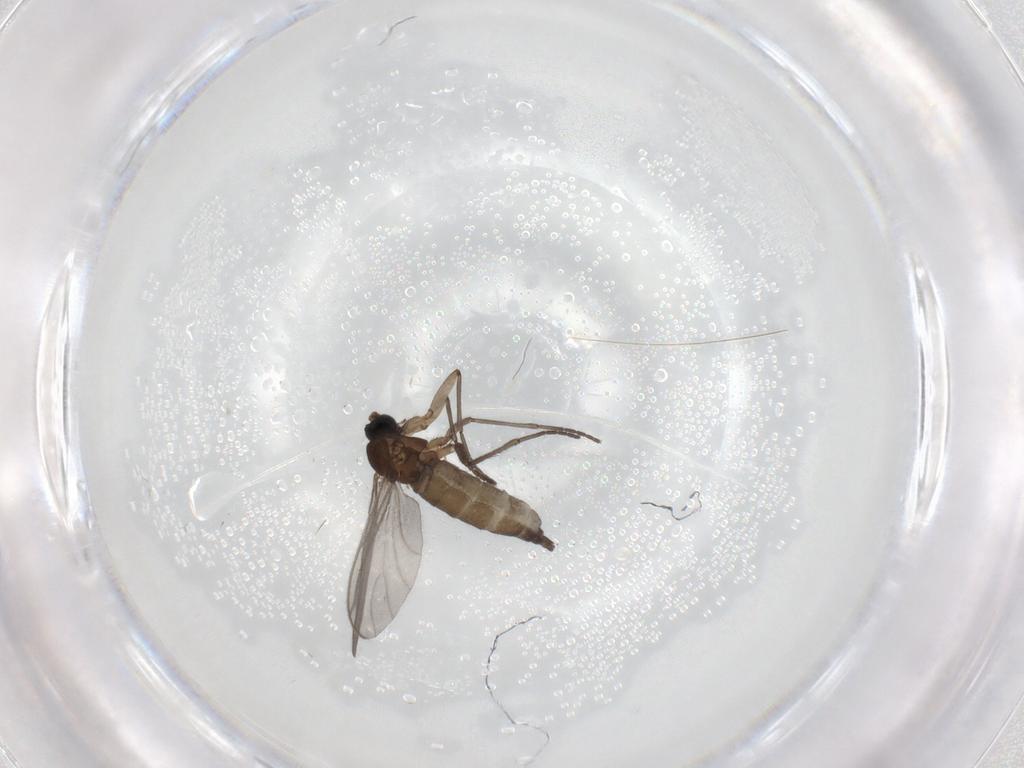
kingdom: Animalia
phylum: Arthropoda
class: Insecta
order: Diptera
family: Sciaridae
